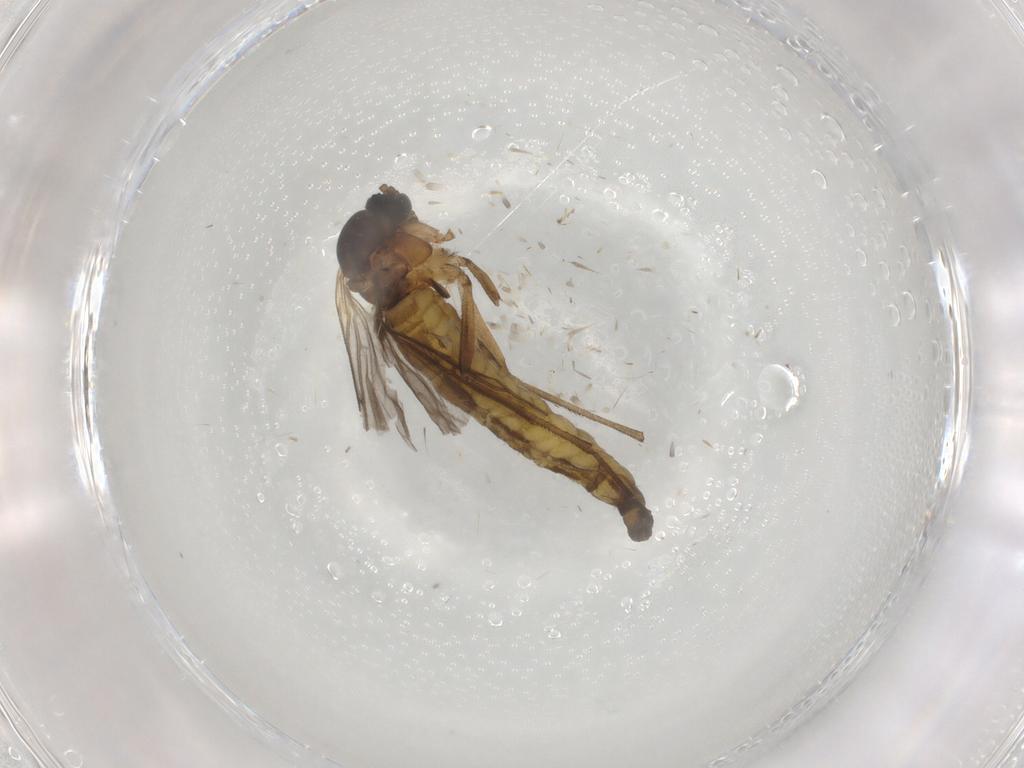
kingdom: Animalia
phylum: Arthropoda
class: Insecta
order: Diptera
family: Sciaridae
